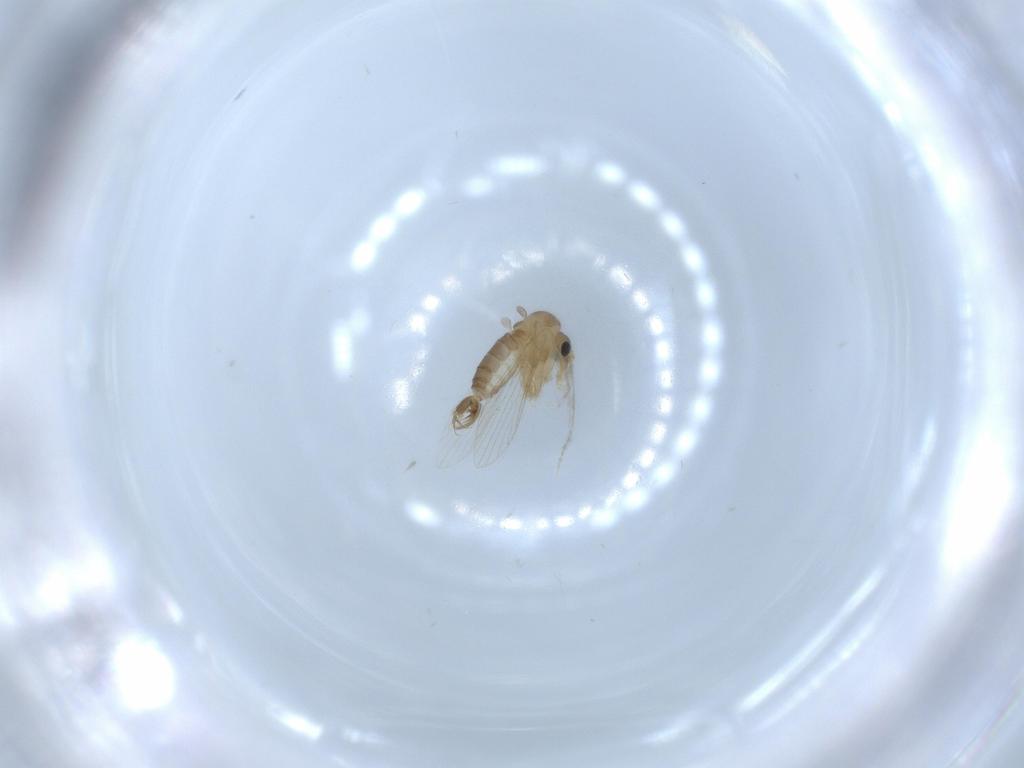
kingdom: Animalia
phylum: Arthropoda
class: Insecta
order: Diptera
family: Psychodidae
